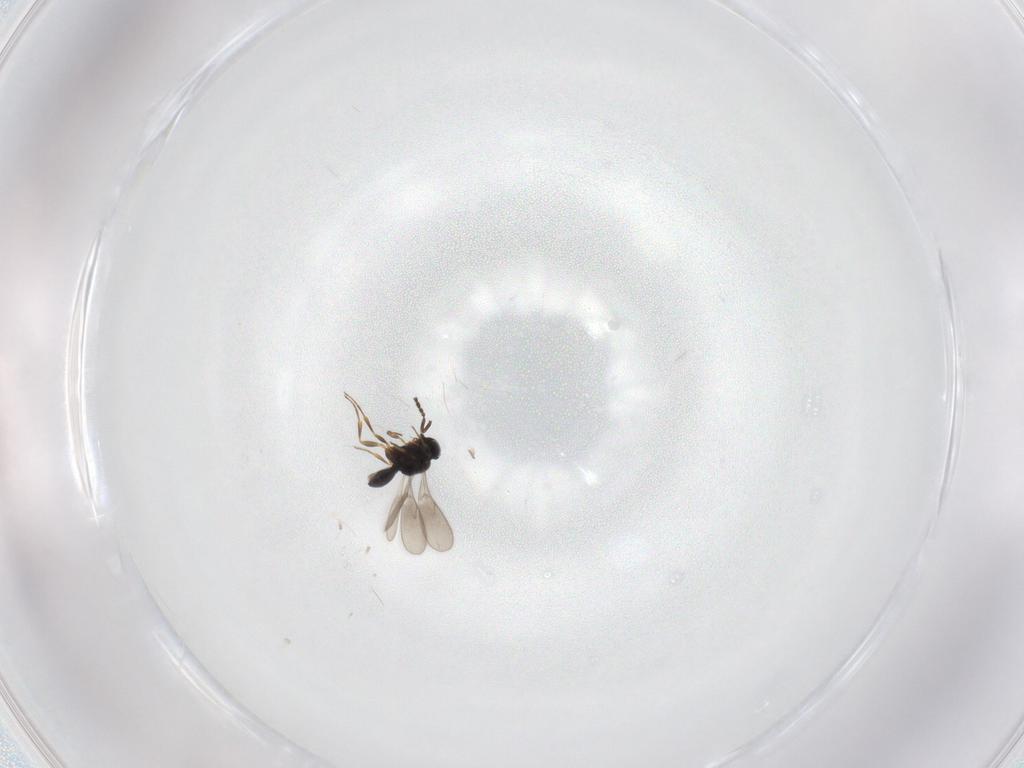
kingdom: Animalia
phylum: Arthropoda
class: Insecta
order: Hymenoptera
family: Scelionidae
